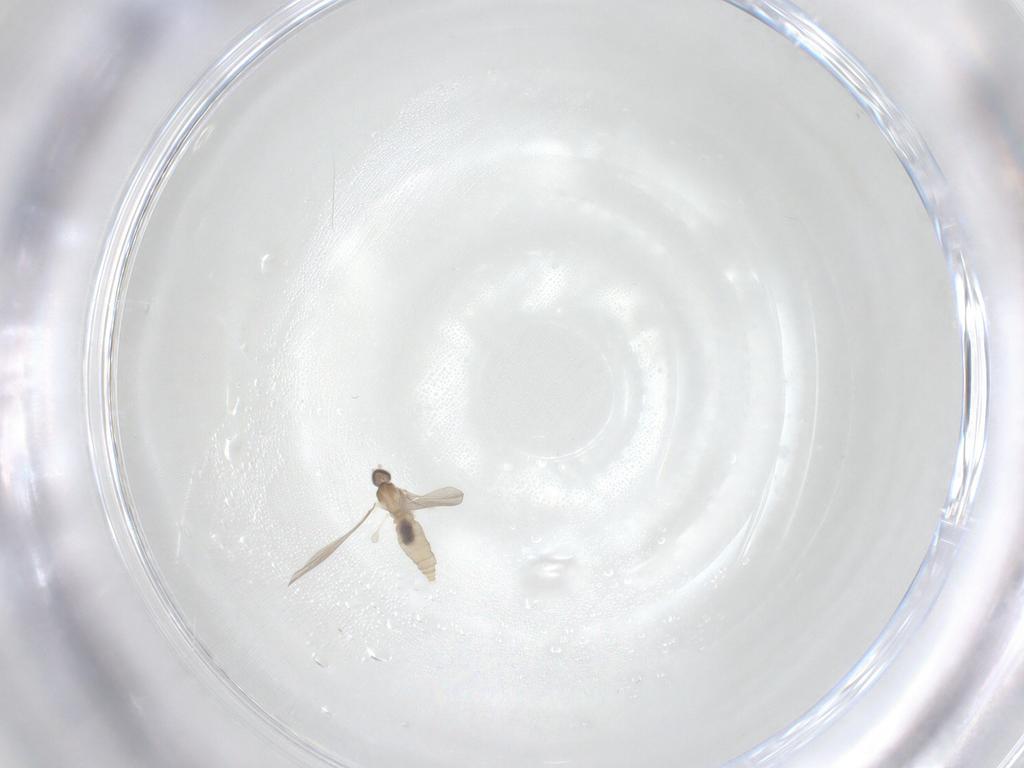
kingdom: Animalia
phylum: Arthropoda
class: Insecta
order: Diptera
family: Cecidomyiidae
